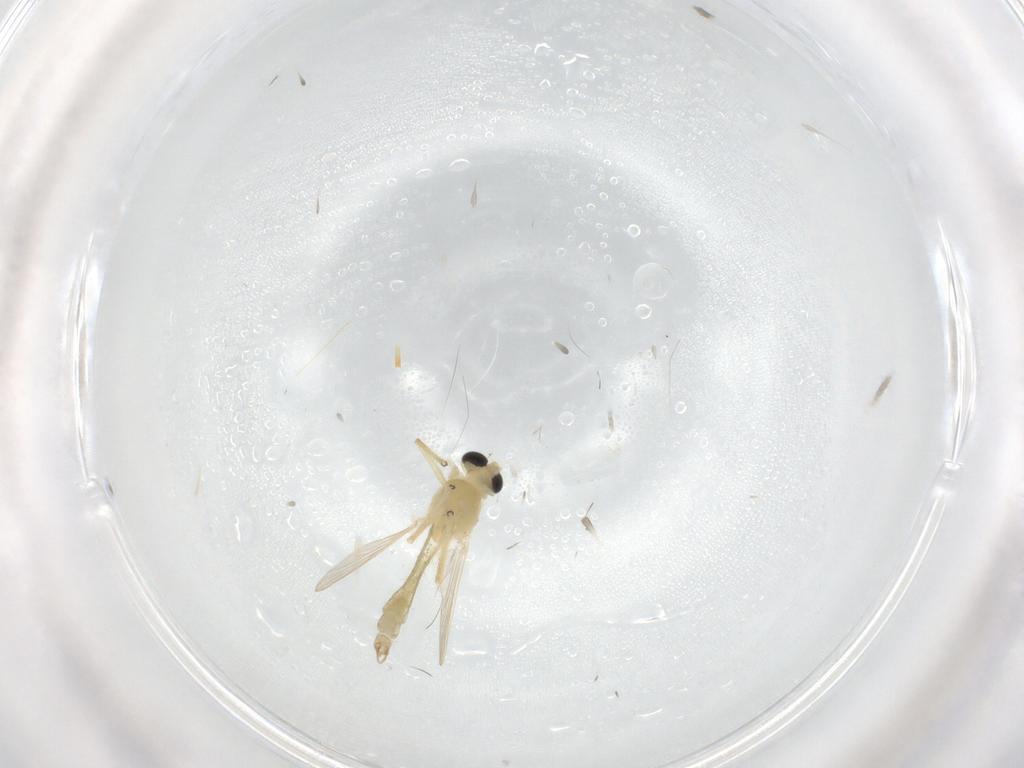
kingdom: Animalia
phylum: Arthropoda
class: Insecta
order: Diptera
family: Chironomidae
